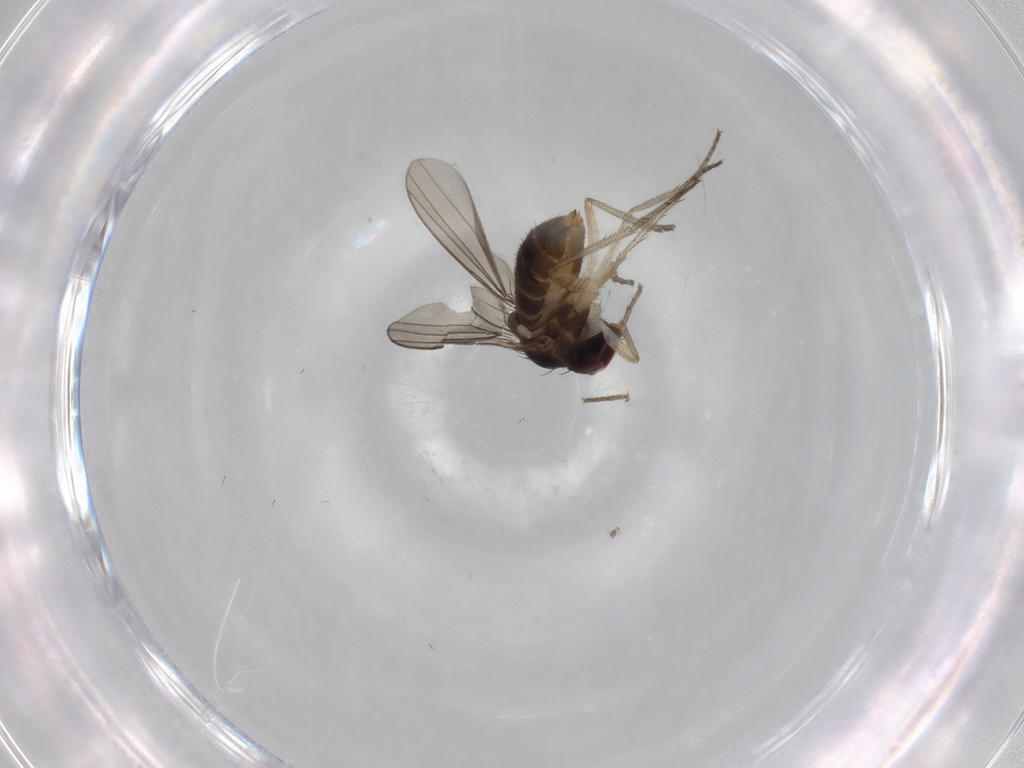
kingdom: Animalia
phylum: Arthropoda
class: Insecta
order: Diptera
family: Dolichopodidae
